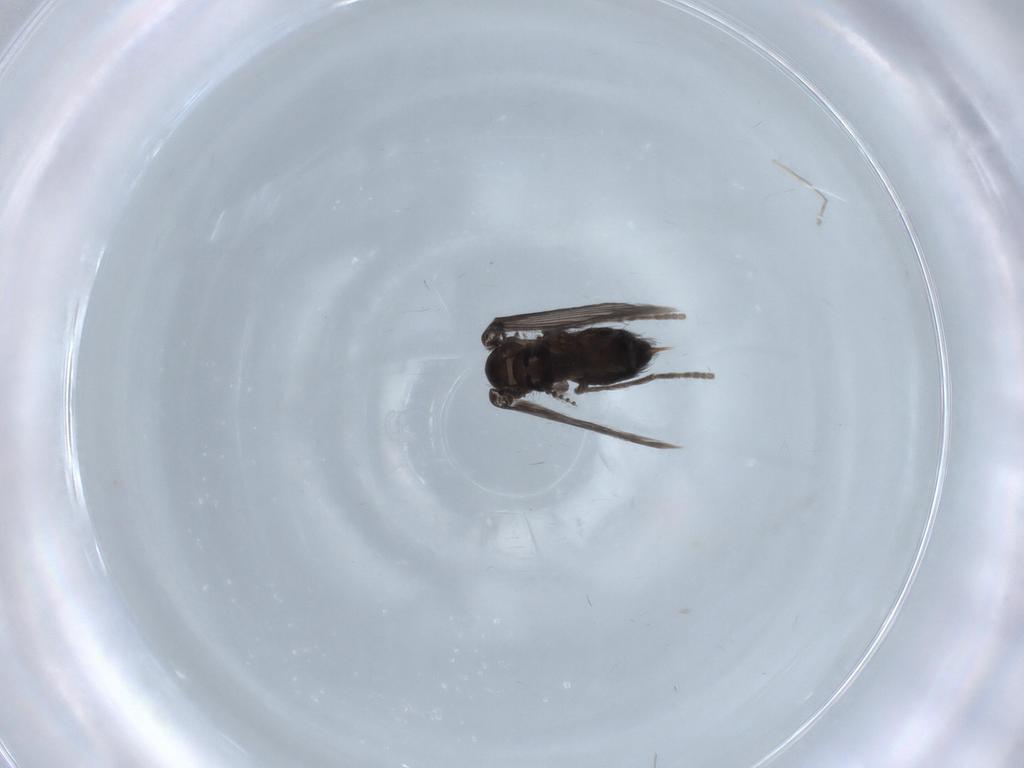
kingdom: Animalia
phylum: Arthropoda
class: Insecta
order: Diptera
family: Psychodidae
